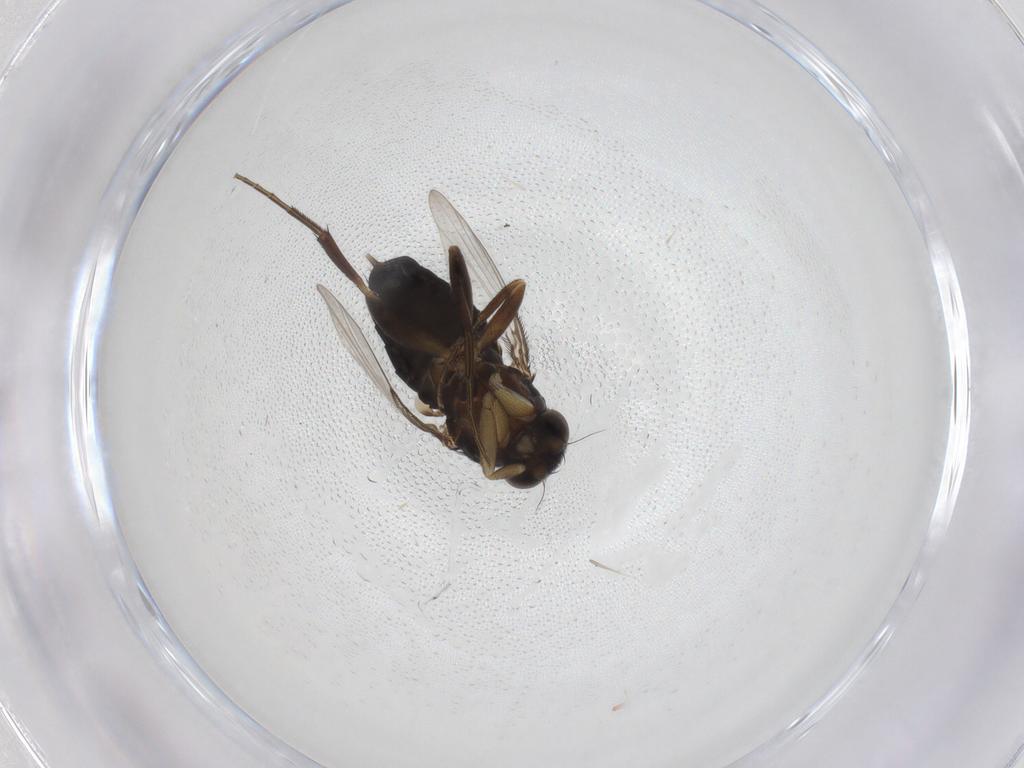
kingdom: Animalia
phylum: Arthropoda
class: Insecta
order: Diptera
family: Phoridae
